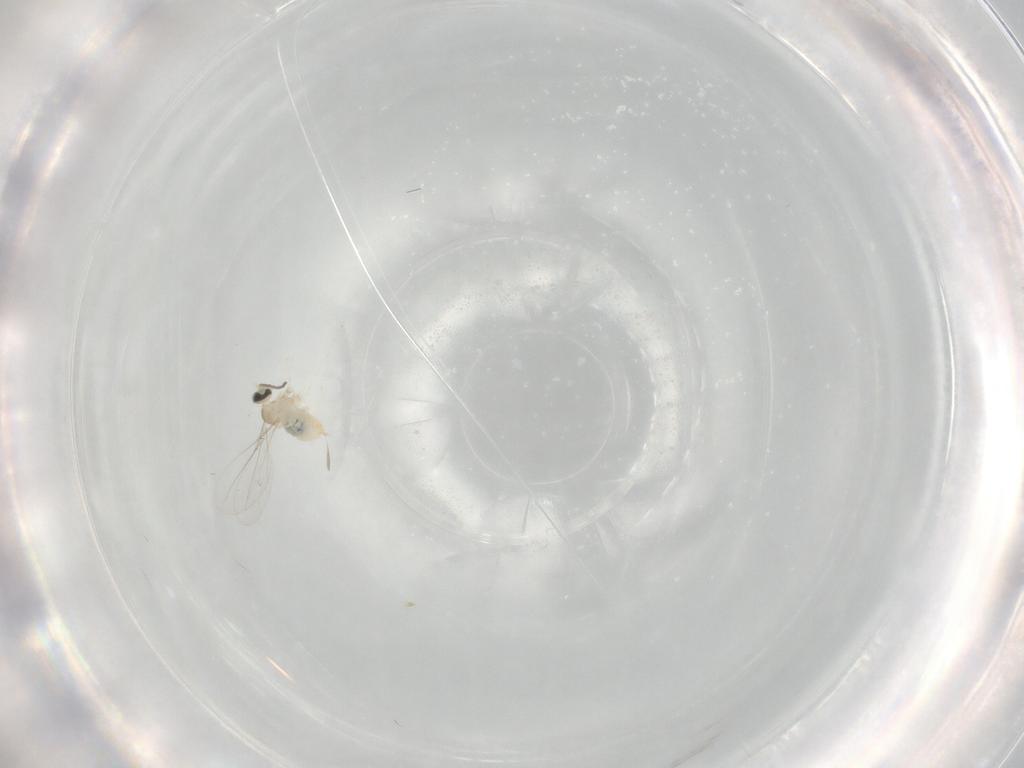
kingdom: Animalia
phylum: Arthropoda
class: Insecta
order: Diptera
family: Cecidomyiidae
